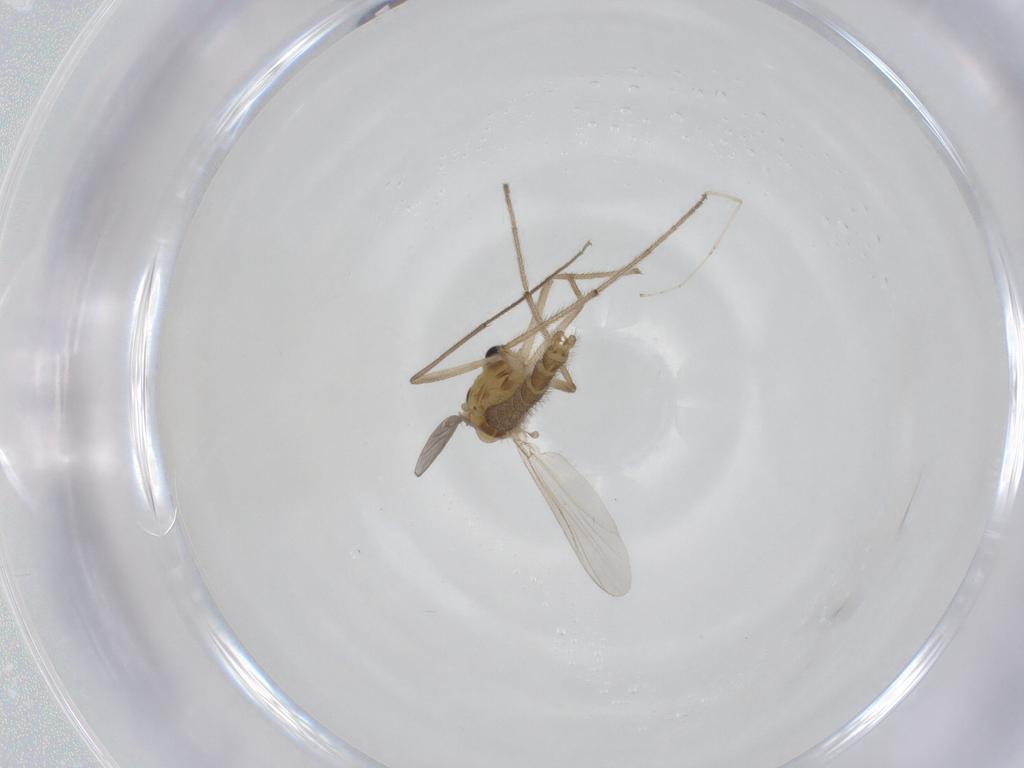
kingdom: Animalia
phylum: Arthropoda
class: Insecta
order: Diptera
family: Chironomidae
